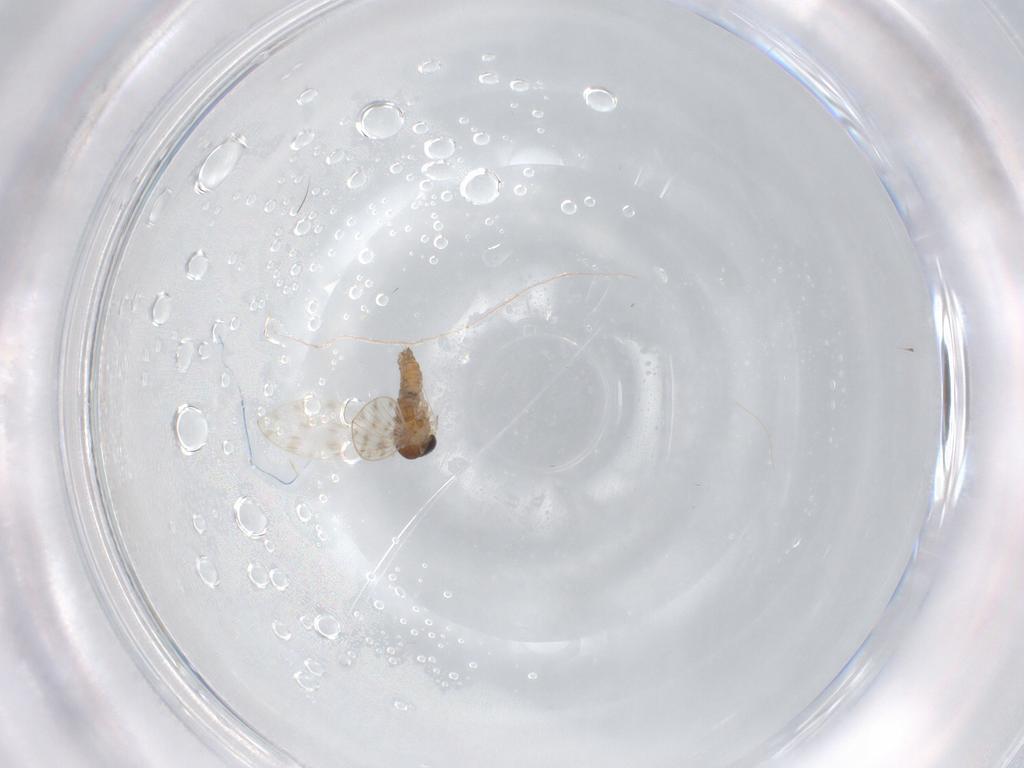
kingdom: Animalia
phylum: Arthropoda
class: Insecta
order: Diptera
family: Psychodidae
